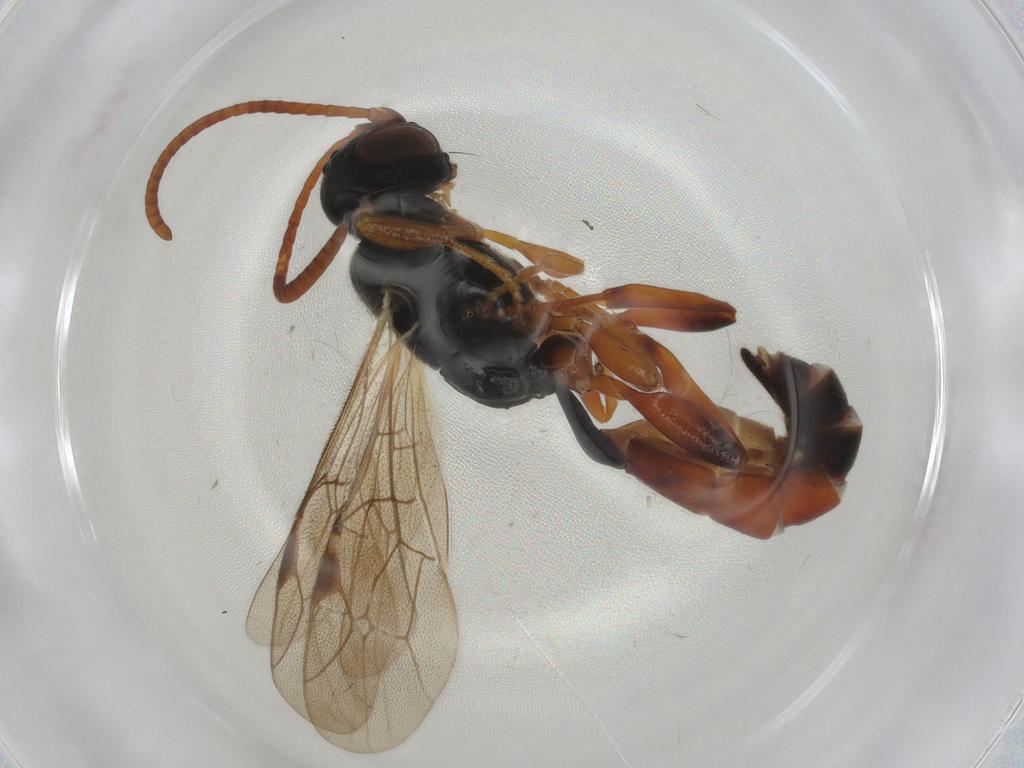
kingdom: Animalia
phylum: Arthropoda
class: Insecta
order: Hymenoptera
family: Ichneumonidae
